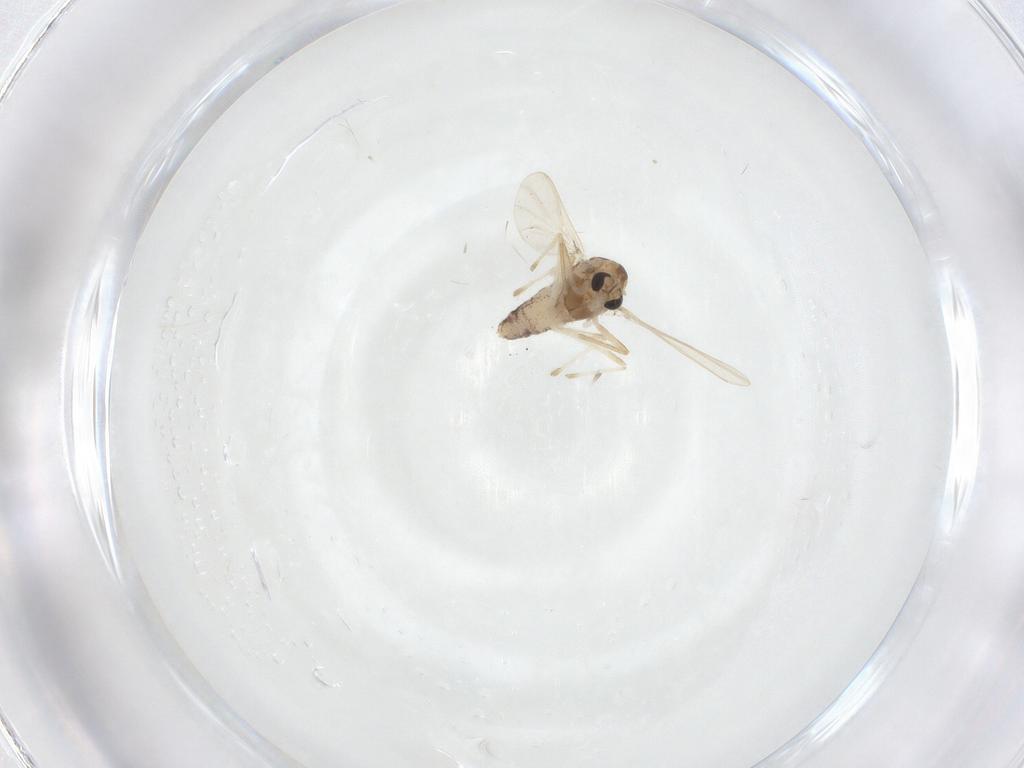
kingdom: Animalia
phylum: Arthropoda
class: Insecta
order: Diptera
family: Chironomidae
